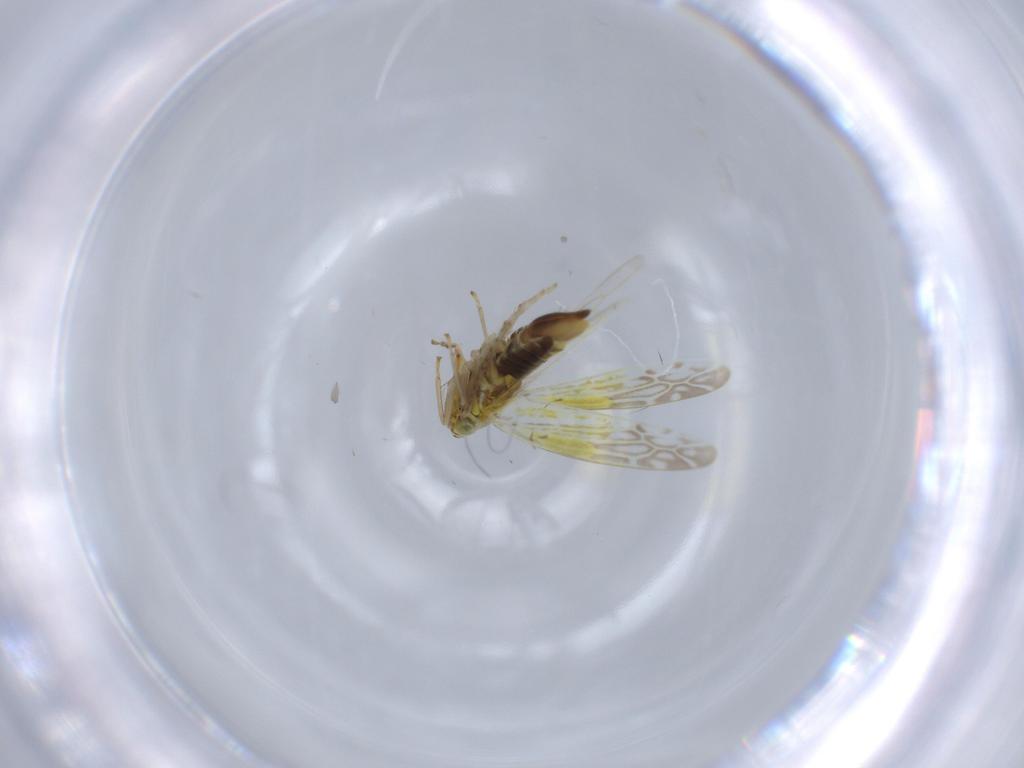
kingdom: Animalia
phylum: Arthropoda
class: Insecta
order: Hemiptera
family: Cicadellidae
